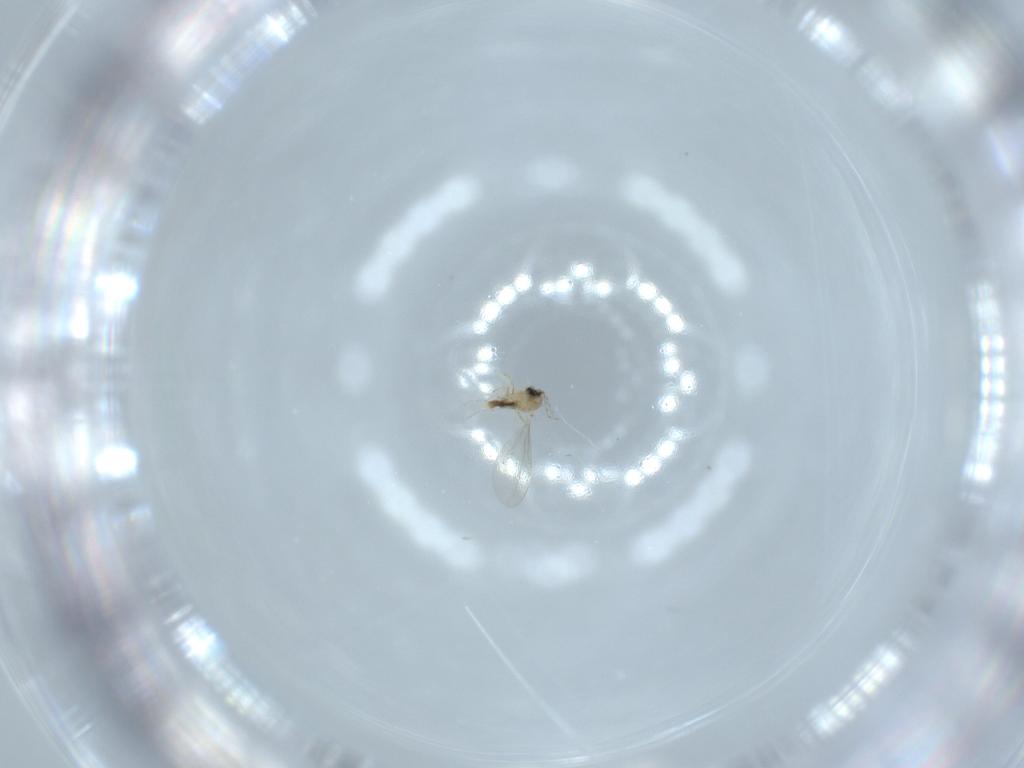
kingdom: Animalia
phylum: Arthropoda
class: Insecta
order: Diptera
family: Cecidomyiidae
